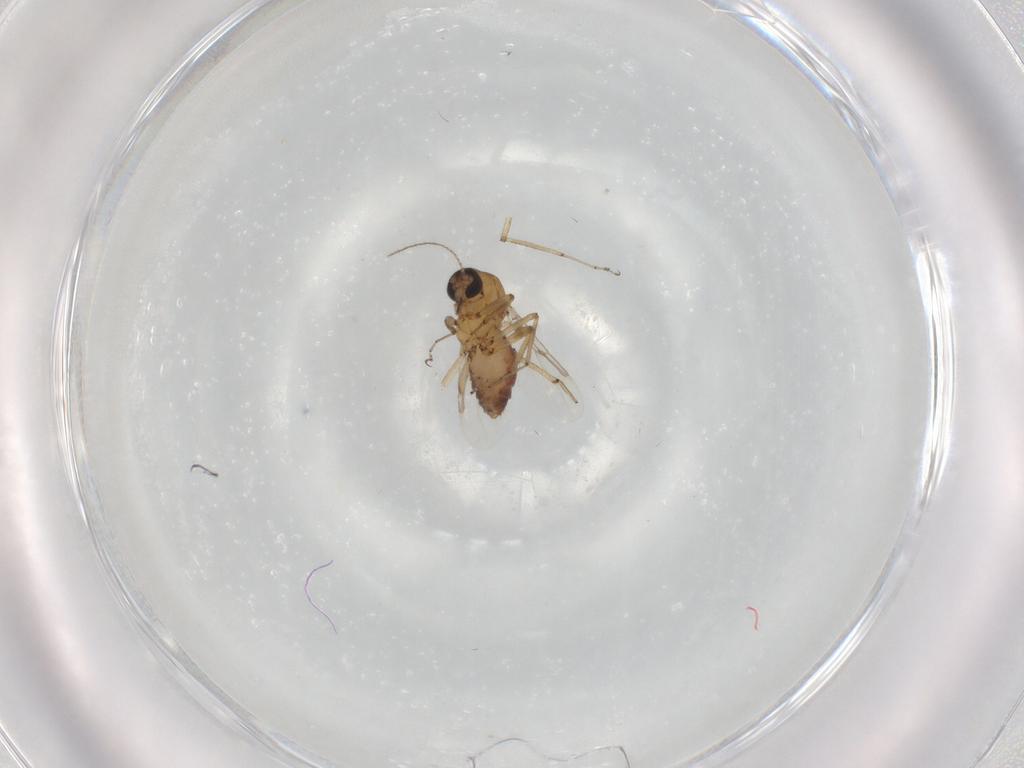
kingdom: Animalia
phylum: Arthropoda
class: Insecta
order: Diptera
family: Ceratopogonidae
